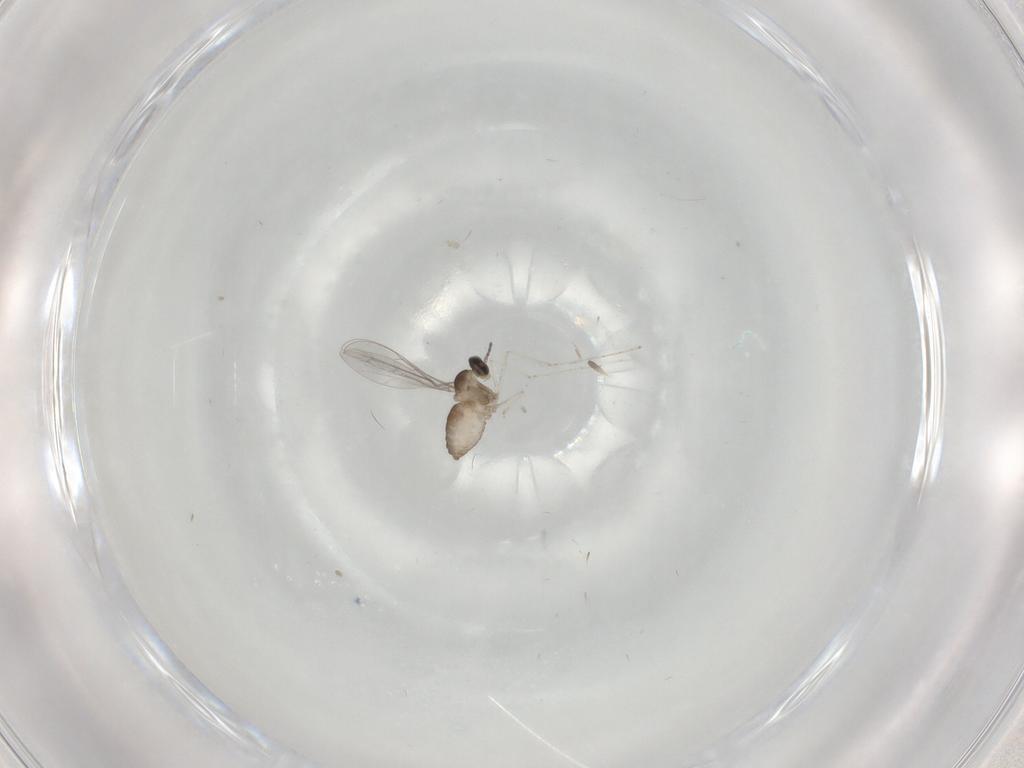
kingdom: Animalia
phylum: Arthropoda
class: Insecta
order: Diptera
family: Cecidomyiidae
